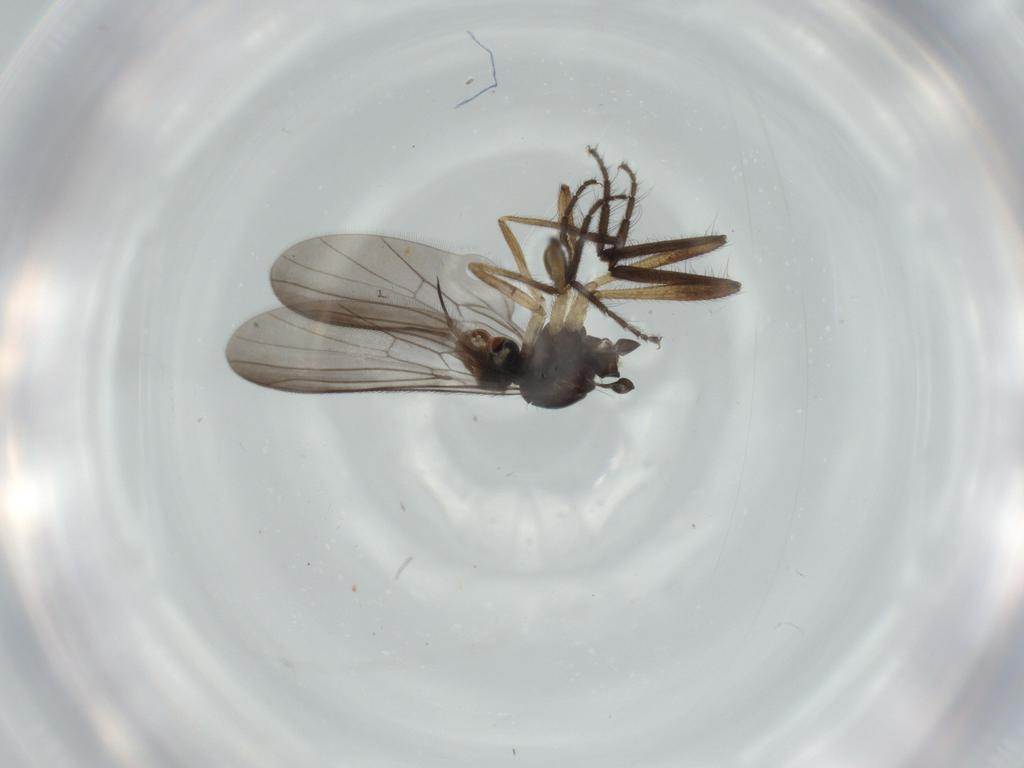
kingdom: Animalia
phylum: Arthropoda
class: Insecta
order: Diptera
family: Empididae
